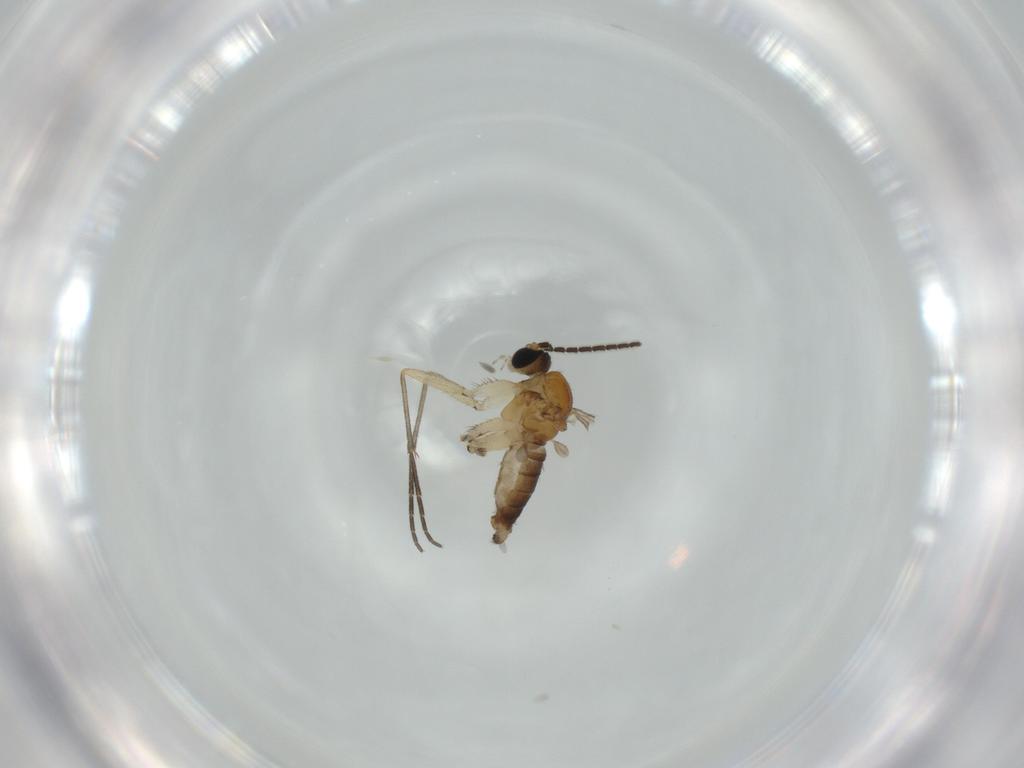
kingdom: Animalia
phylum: Arthropoda
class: Insecta
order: Diptera
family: Sciaridae
